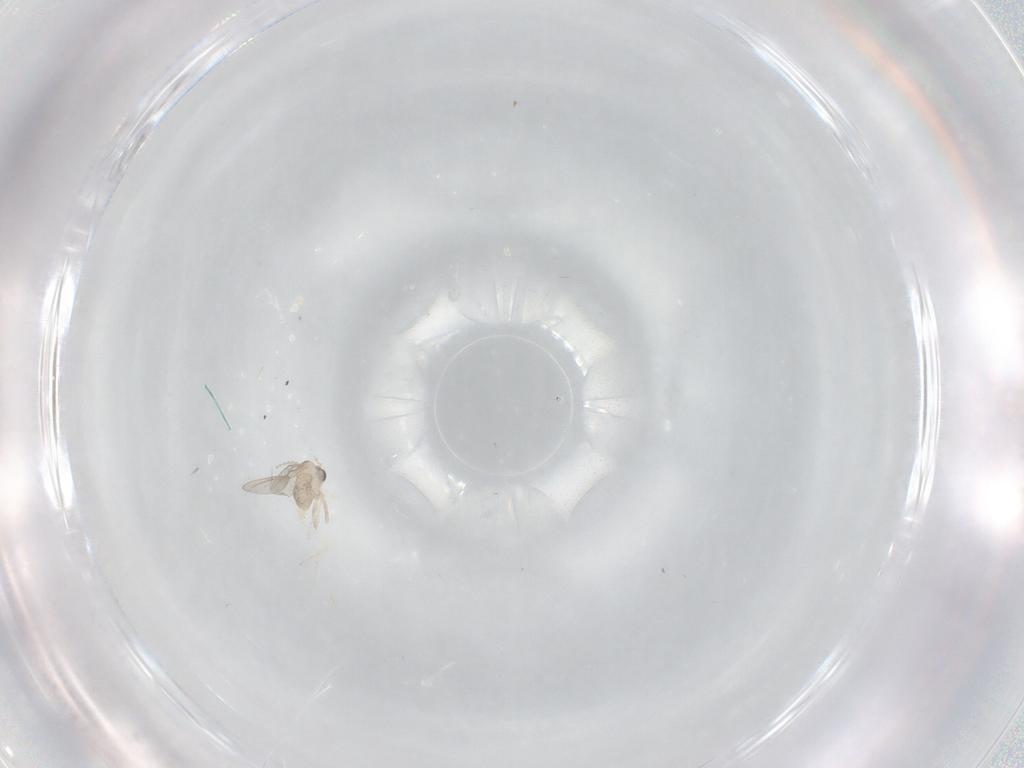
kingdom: Animalia
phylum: Arthropoda
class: Insecta
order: Diptera
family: Cecidomyiidae
